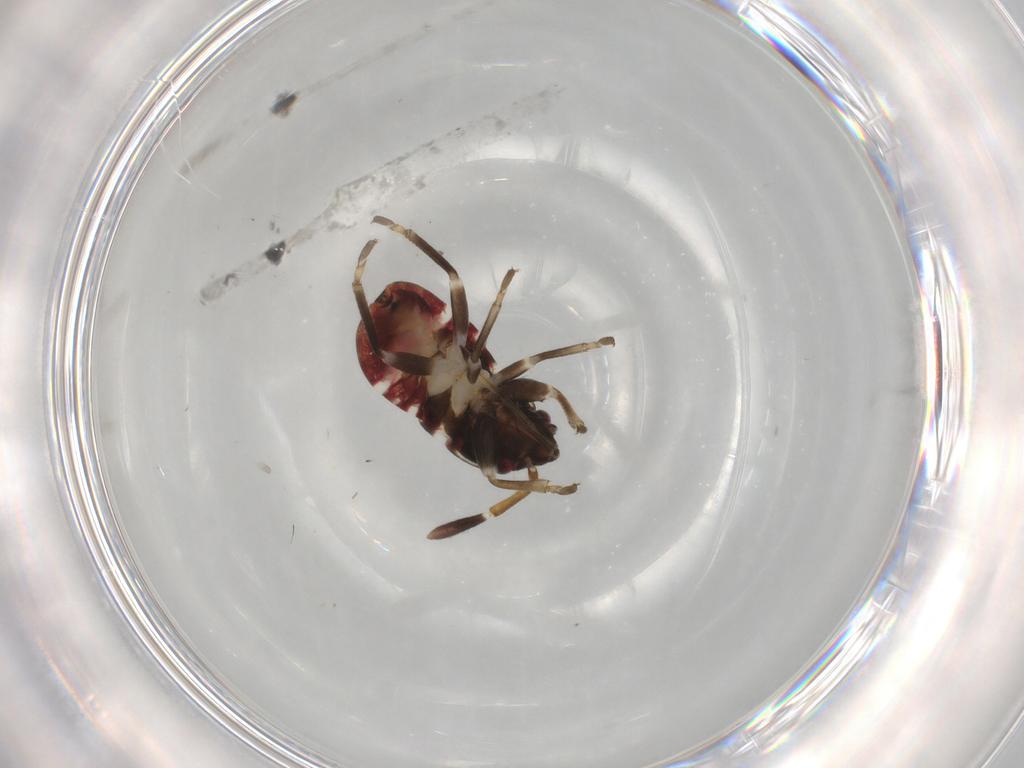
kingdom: Animalia
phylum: Arthropoda
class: Insecta
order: Hemiptera
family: Rhyparochromidae
